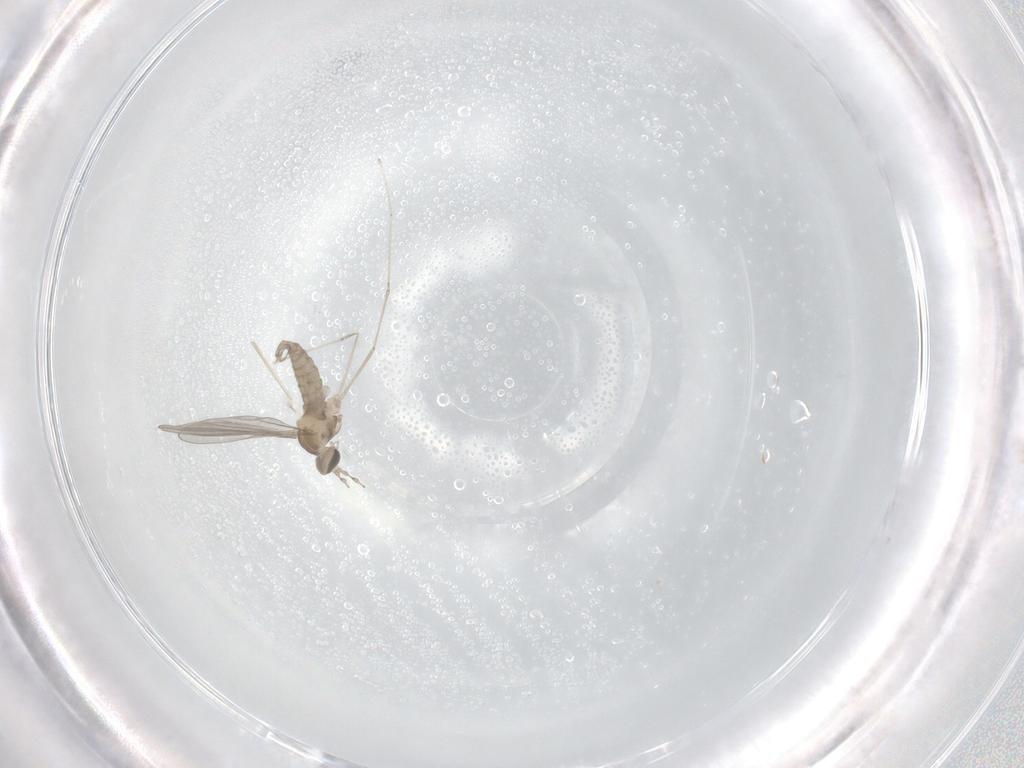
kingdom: Animalia
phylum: Arthropoda
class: Insecta
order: Diptera
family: Cecidomyiidae
